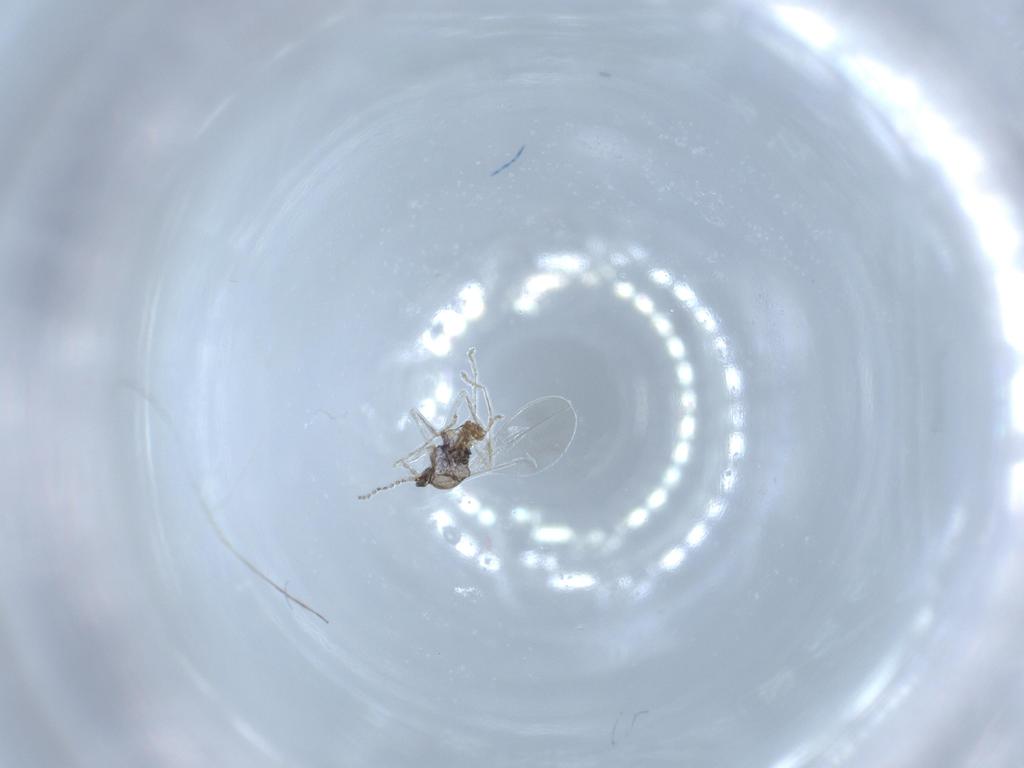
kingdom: Animalia
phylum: Arthropoda
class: Insecta
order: Diptera
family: Cecidomyiidae
